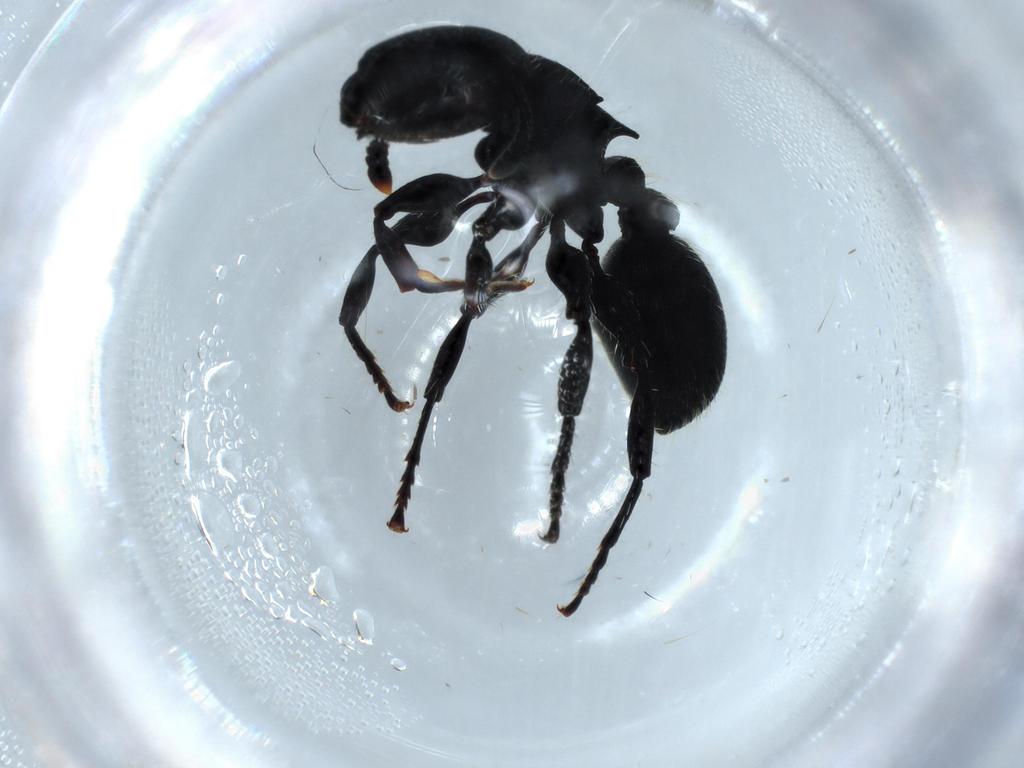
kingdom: Animalia
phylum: Arthropoda
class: Insecta
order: Hymenoptera
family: Formicidae
